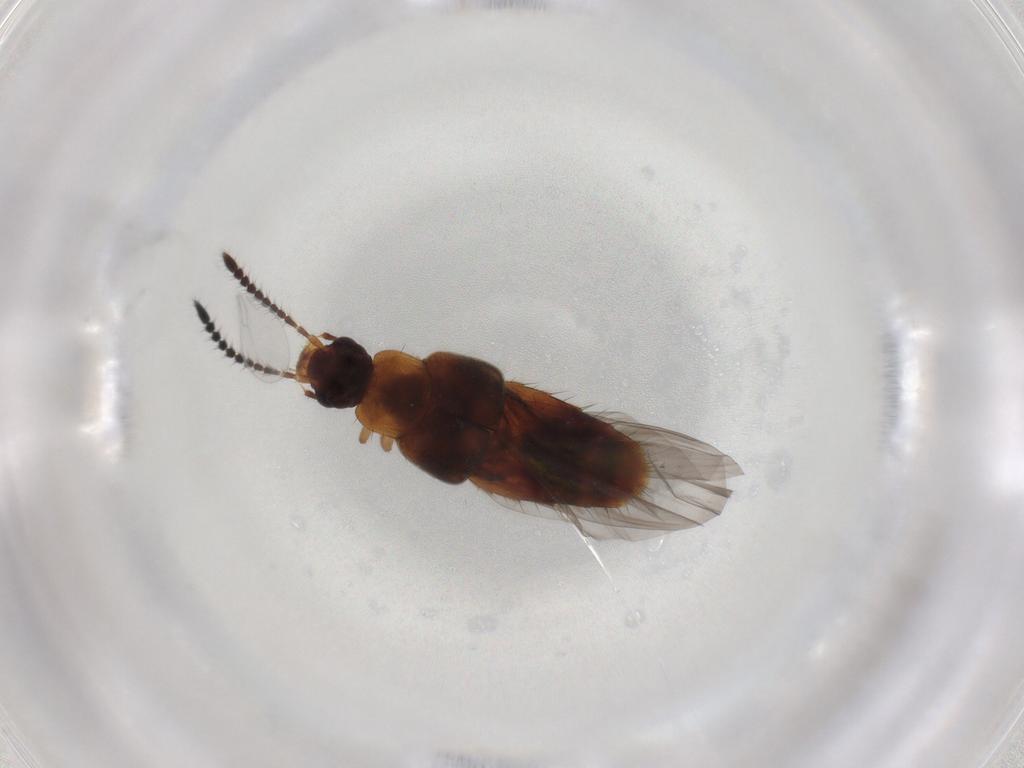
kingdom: Animalia
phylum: Arthropoda
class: Insecta
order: Coleoptera
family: Cantharidae
